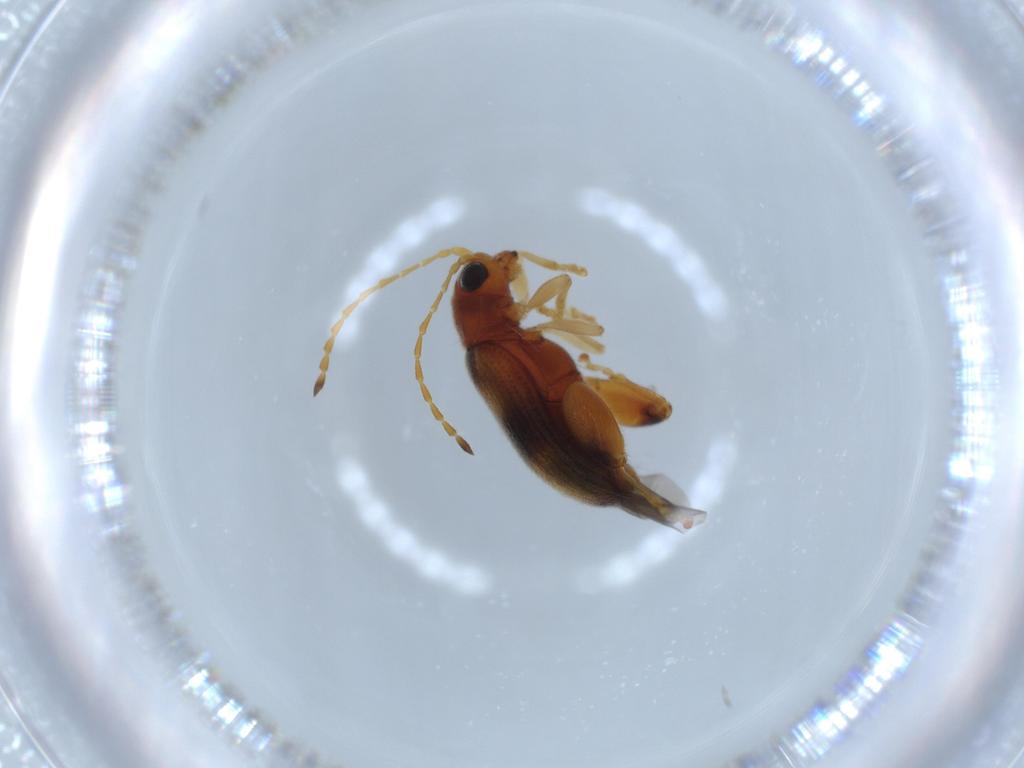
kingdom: Animalia
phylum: Arthropoda
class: Insecta
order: Coleoptera
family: Chrysomelidae
